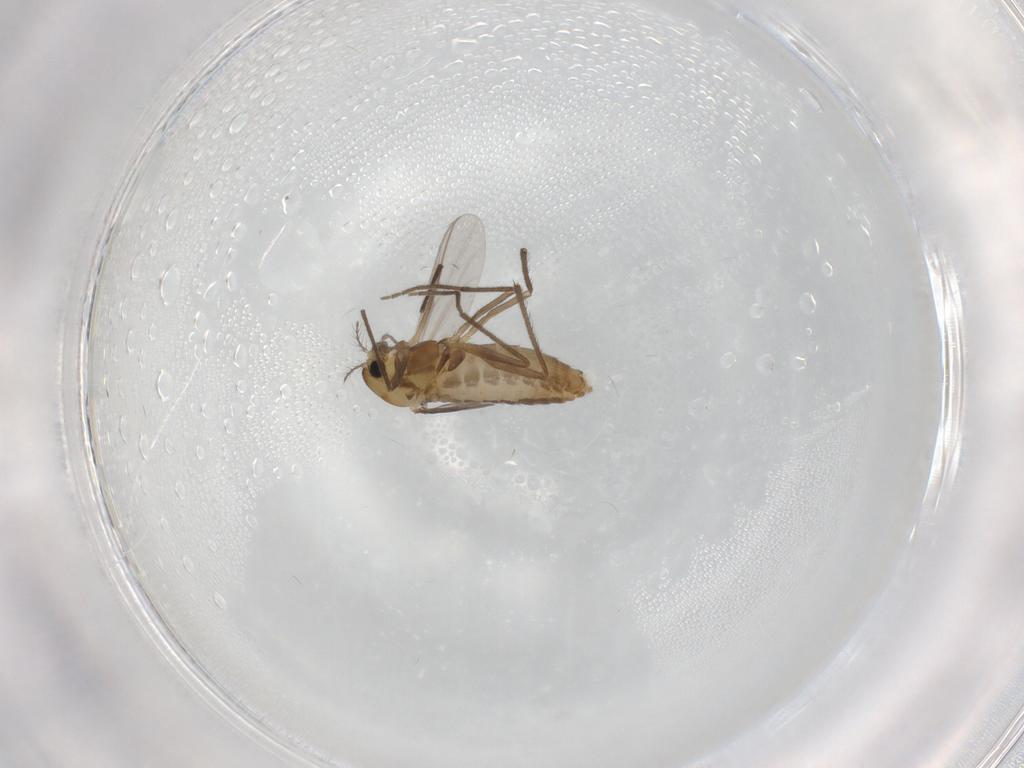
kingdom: Animalia
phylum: Arthropoda
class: Insecta
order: Diptera
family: Chironomidae
